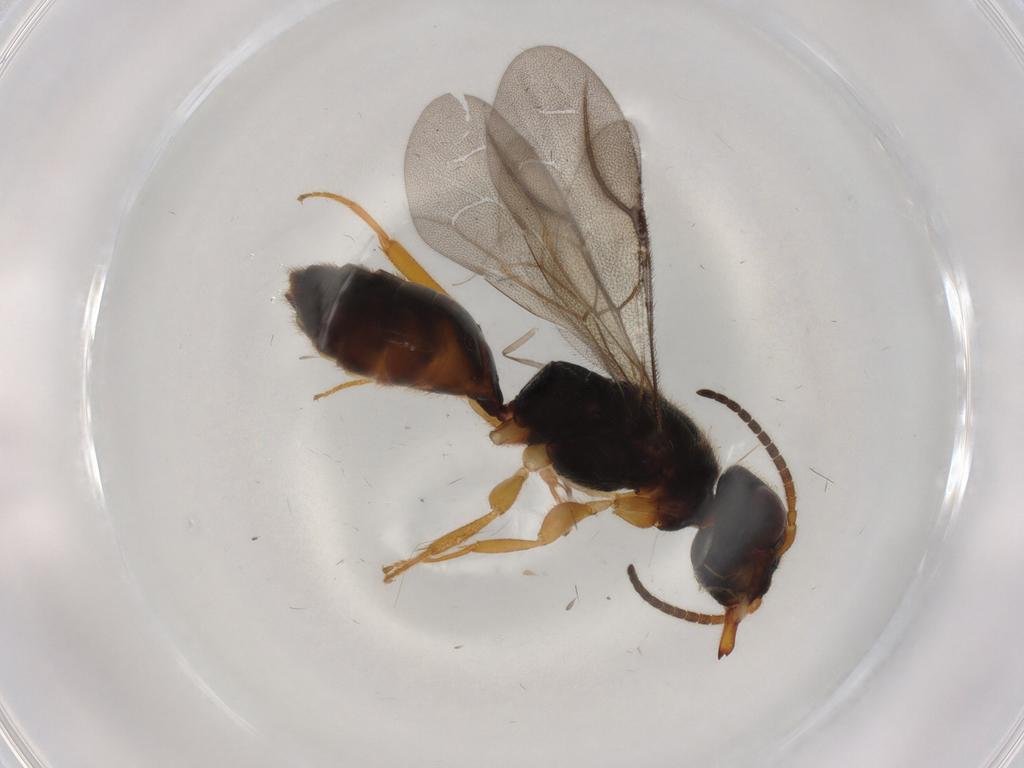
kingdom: Animalia
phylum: Arthropoda
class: Insecta
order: Hymenoptera
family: Bethylidae
